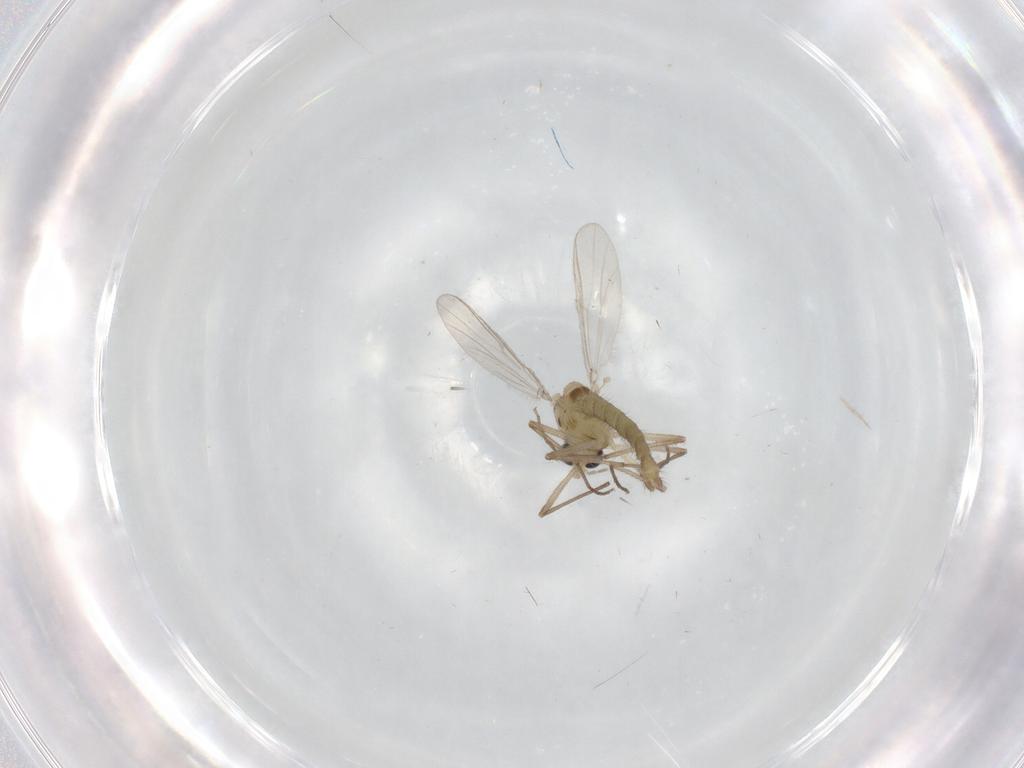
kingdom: Animalia
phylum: Arthropoda
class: Insecta
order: Diptera
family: Chironomidae
